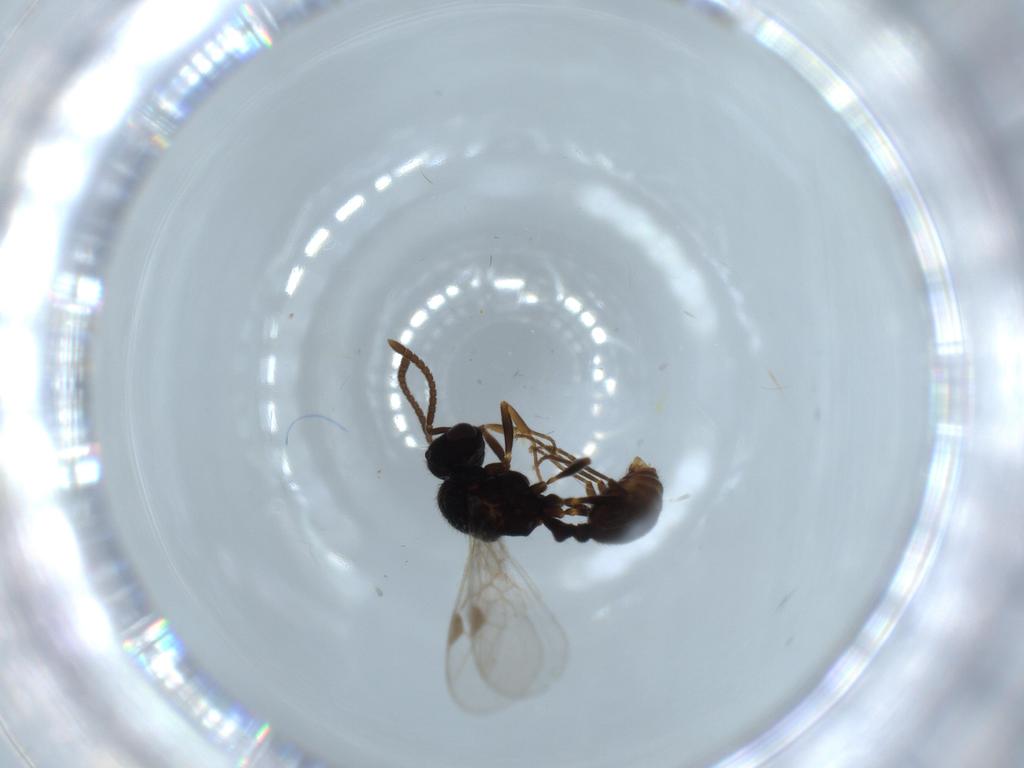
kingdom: Animalia
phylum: Arthropoda
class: Insecta
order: Hymenoptera
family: Formicidae
